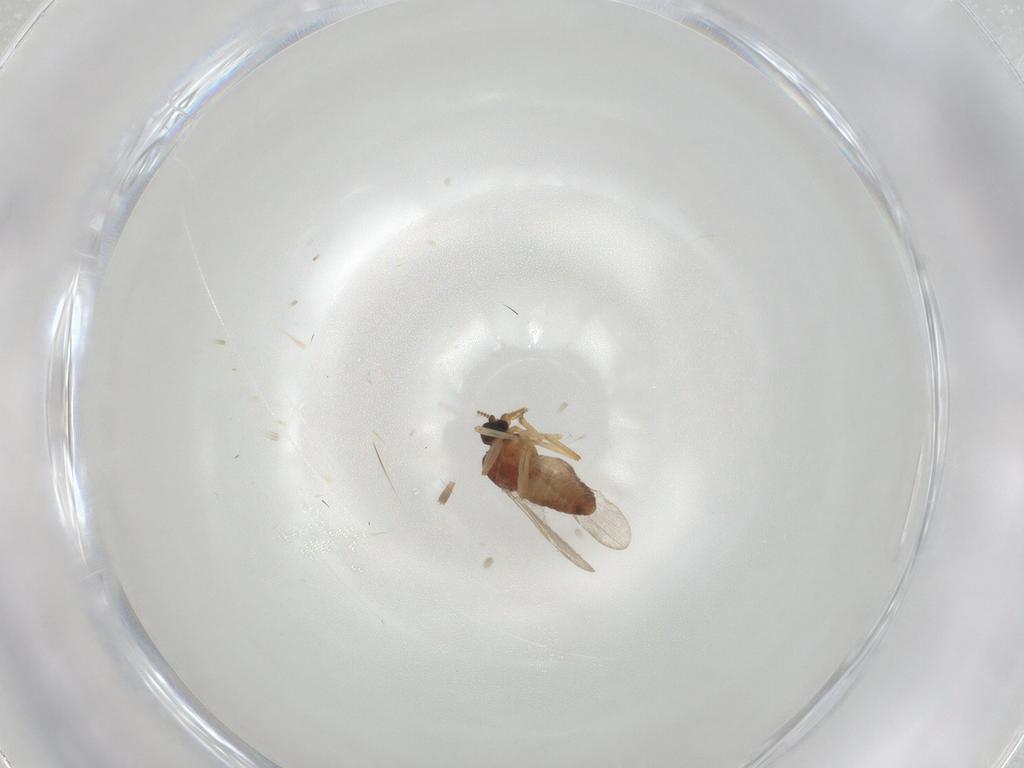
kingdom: Animalia
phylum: Arthropoda
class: Insecta
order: Diptera
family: Ceratopogonidae
